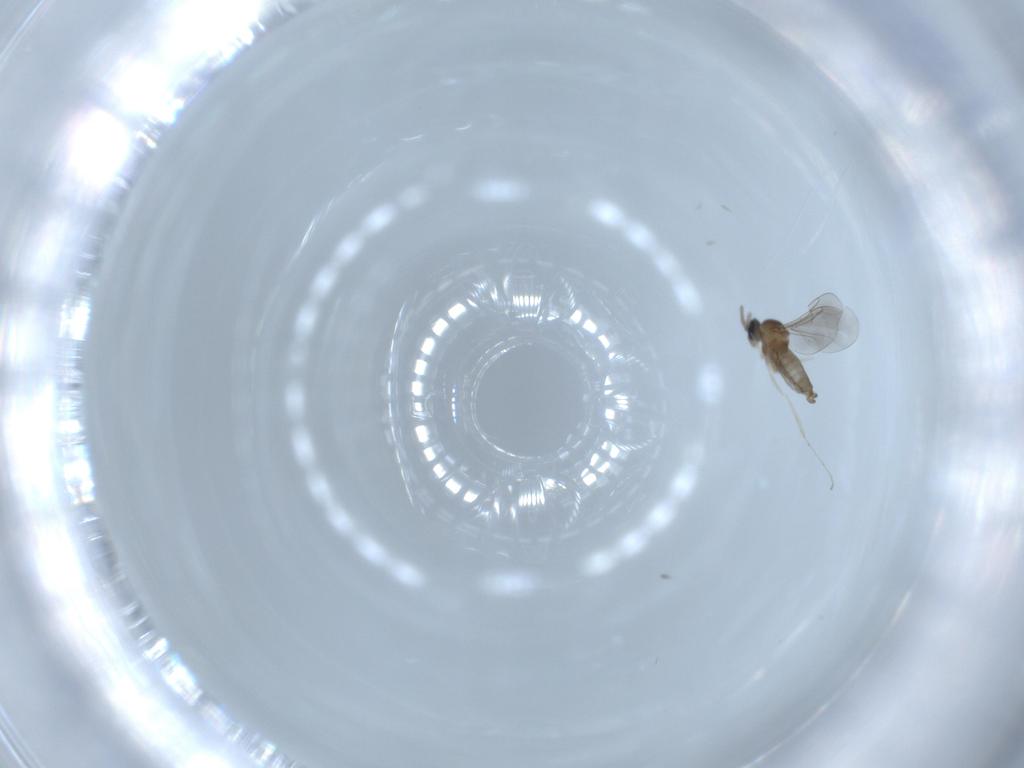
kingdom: Animalia
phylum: Arthropoda
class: Insecta
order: Diptera
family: Cecidomyiidae
